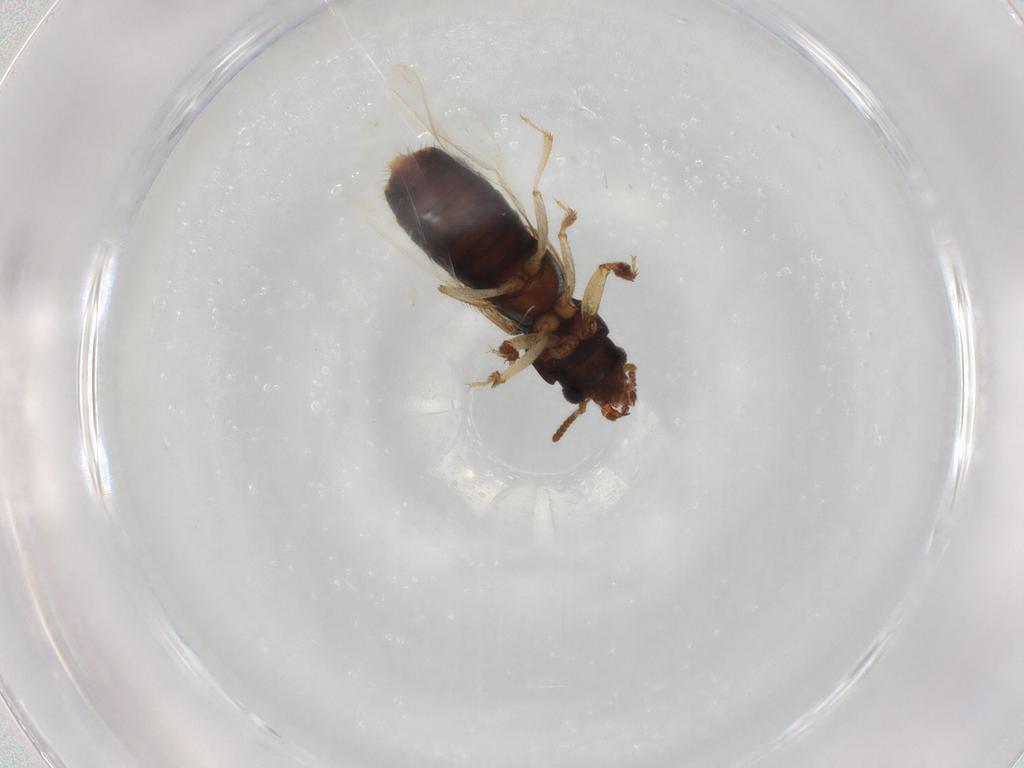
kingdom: Animalia
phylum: Arthropoda
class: Insecta
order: Coleoptera
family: Staphylinidae
